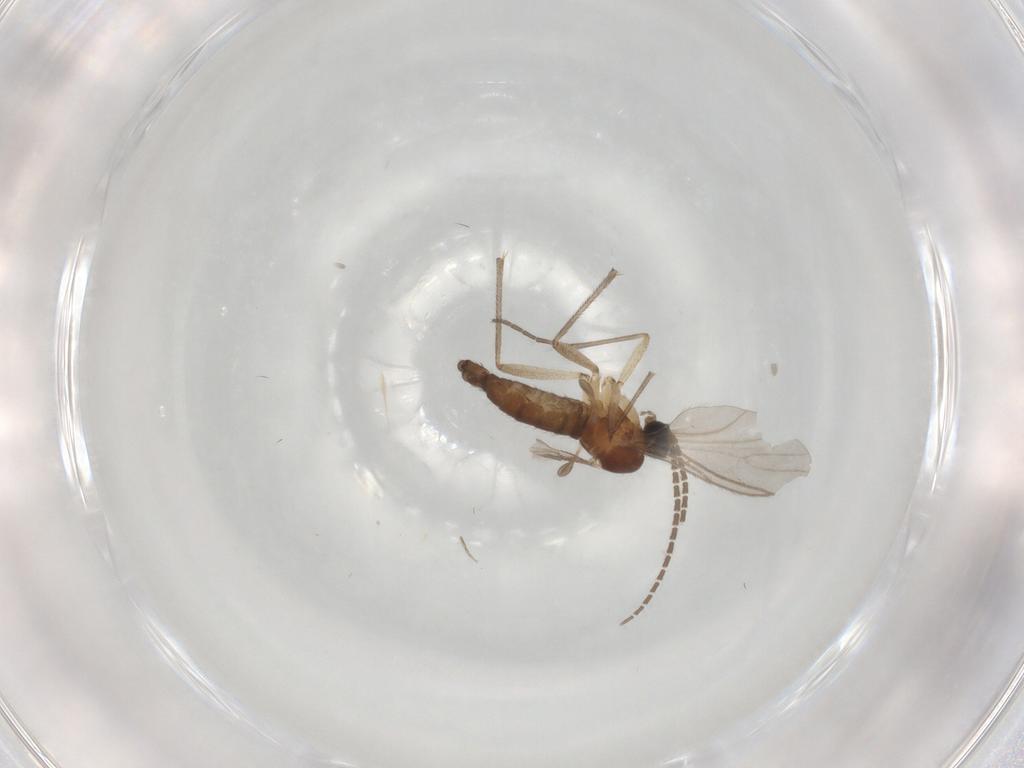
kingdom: Animalia
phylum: Arthropoda
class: Insecta
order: Diptera
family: Sciaridae
